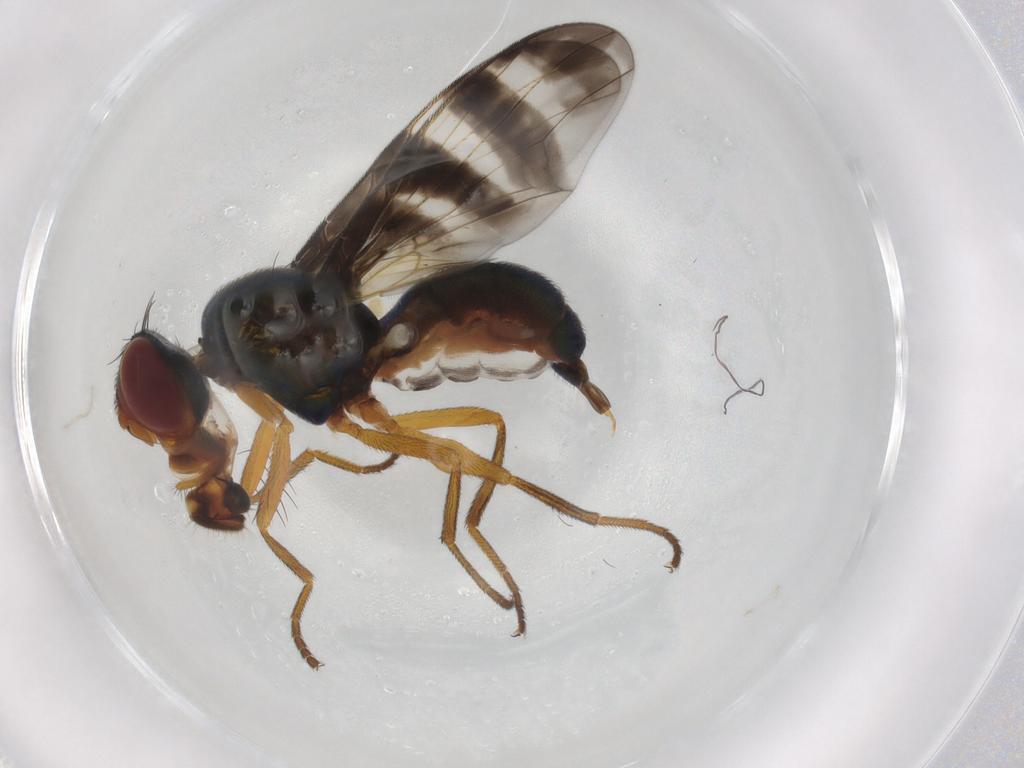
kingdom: Animalia
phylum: Arthropoda
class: Insecta
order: Diptera
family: Platystomatidae
